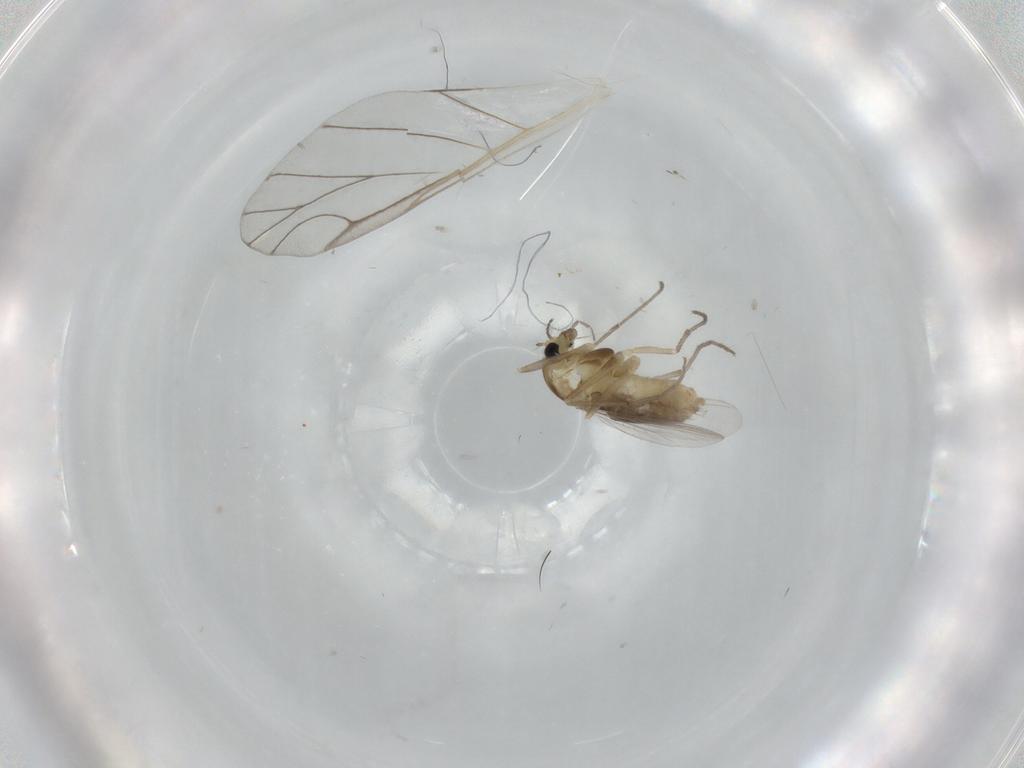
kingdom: Animalia
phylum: Arthropoda
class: Insecta
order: Diptera
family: Chironomidae
